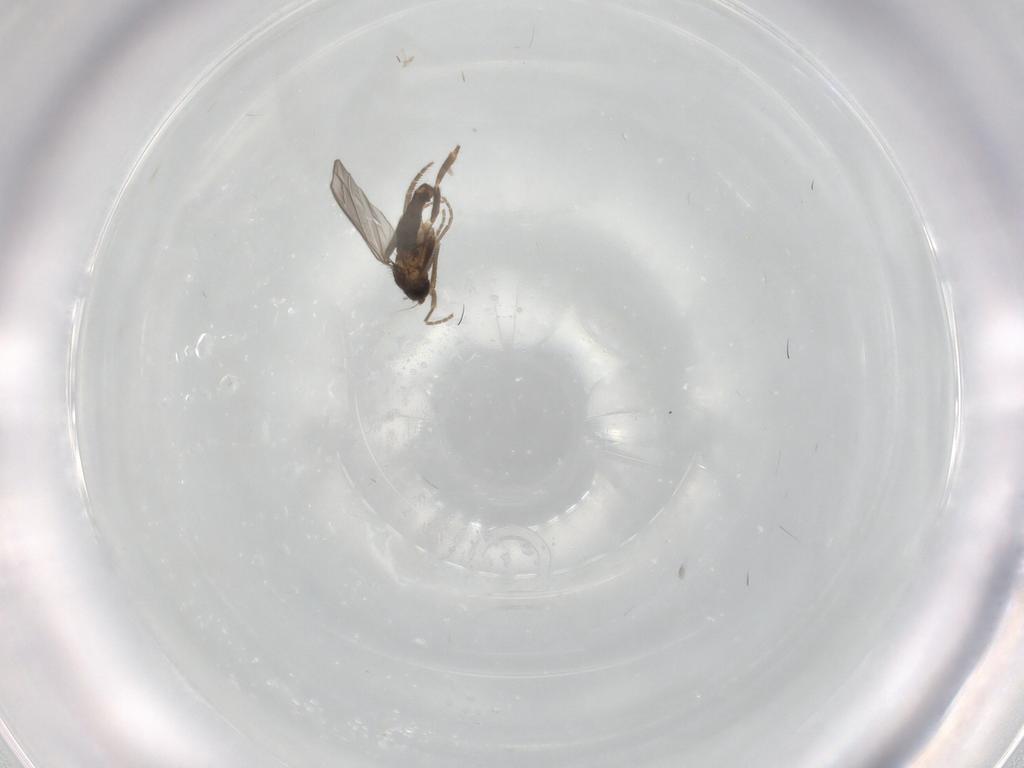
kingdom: Animalia
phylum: Arthropoda
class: Insecta
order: Diptera
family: Phoridae
